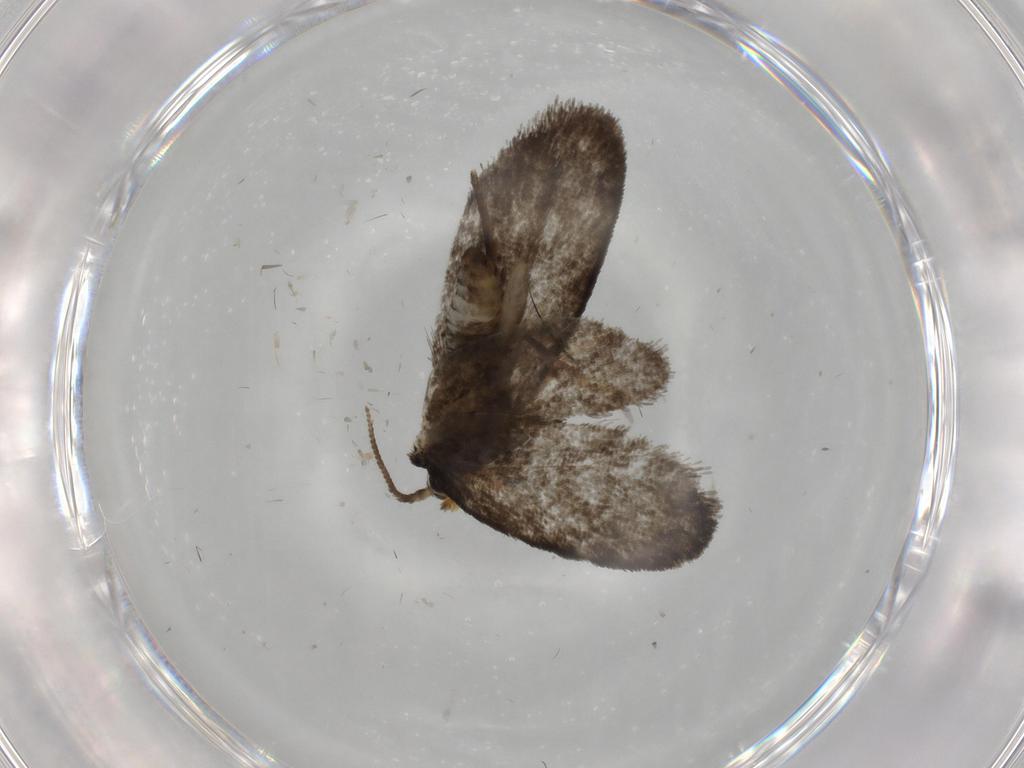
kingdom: Animalia
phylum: Arthropoda
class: Insecta
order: Lepidoptera
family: Psychidae
